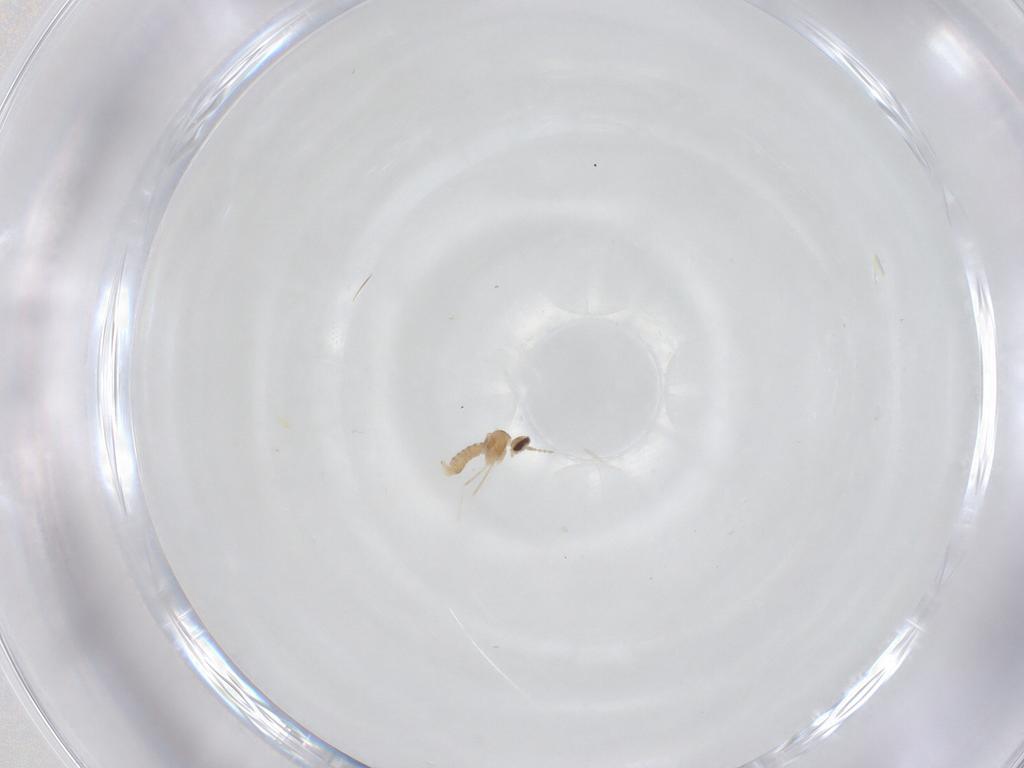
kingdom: Animalia
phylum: Arthropoda
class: Insecta
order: Diptera
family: Cecidomyiidae
